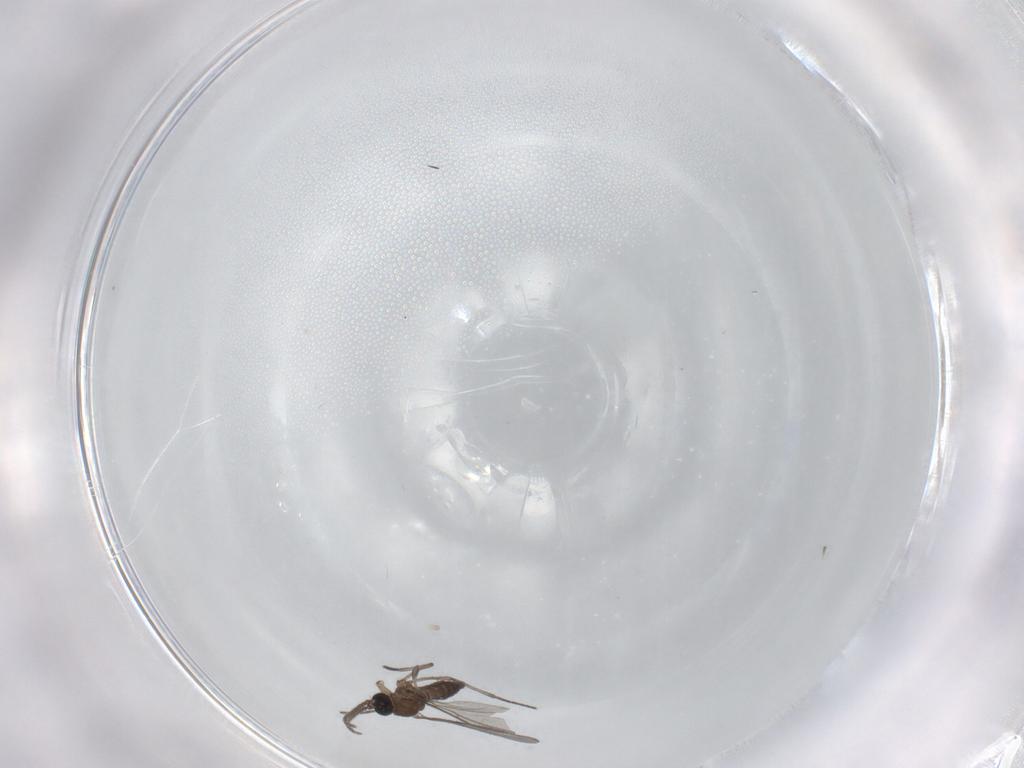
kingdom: Animalia
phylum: Arthropoda
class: Insecta
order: Diptera
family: Sciaridae
